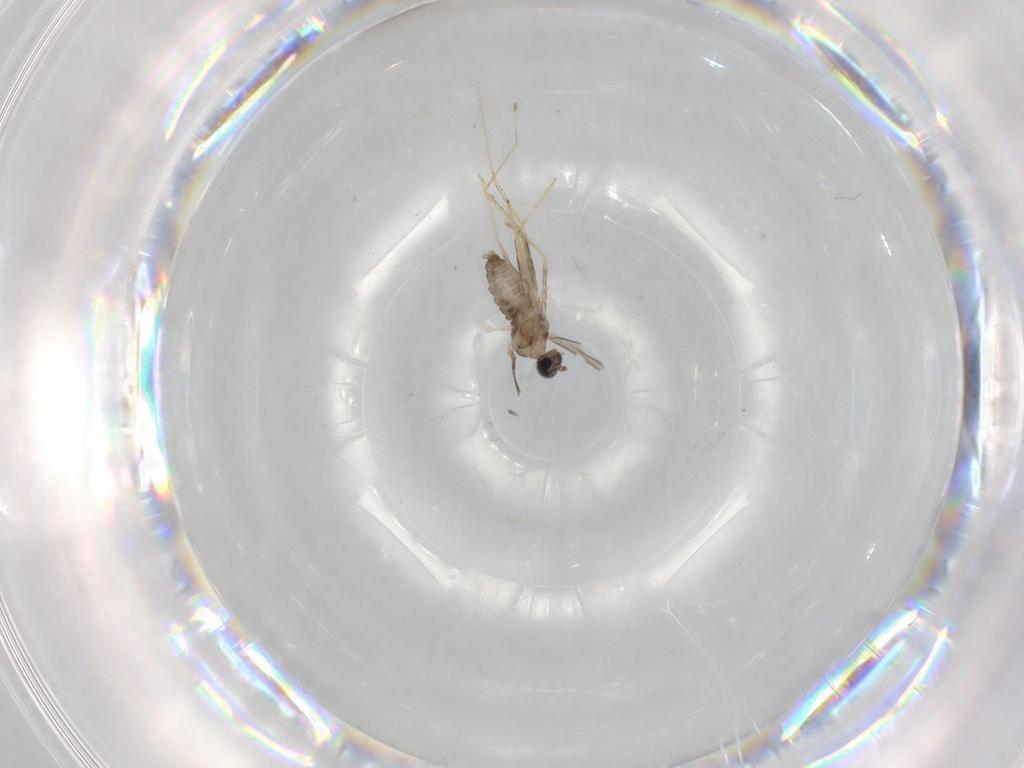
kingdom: Animalia
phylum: Arthropoda
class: Insecta
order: Diptera
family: Cecidomyiidae
